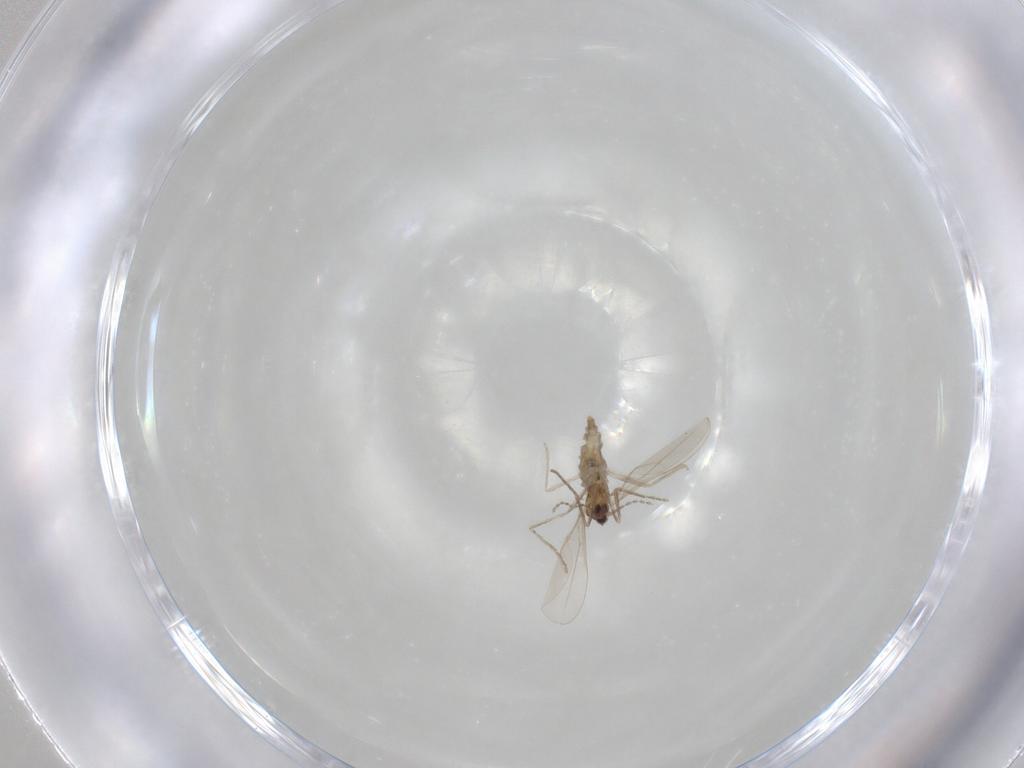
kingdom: Animalia
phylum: Arthropoda
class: Insecta
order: Diptera
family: Cecidomyiidae
